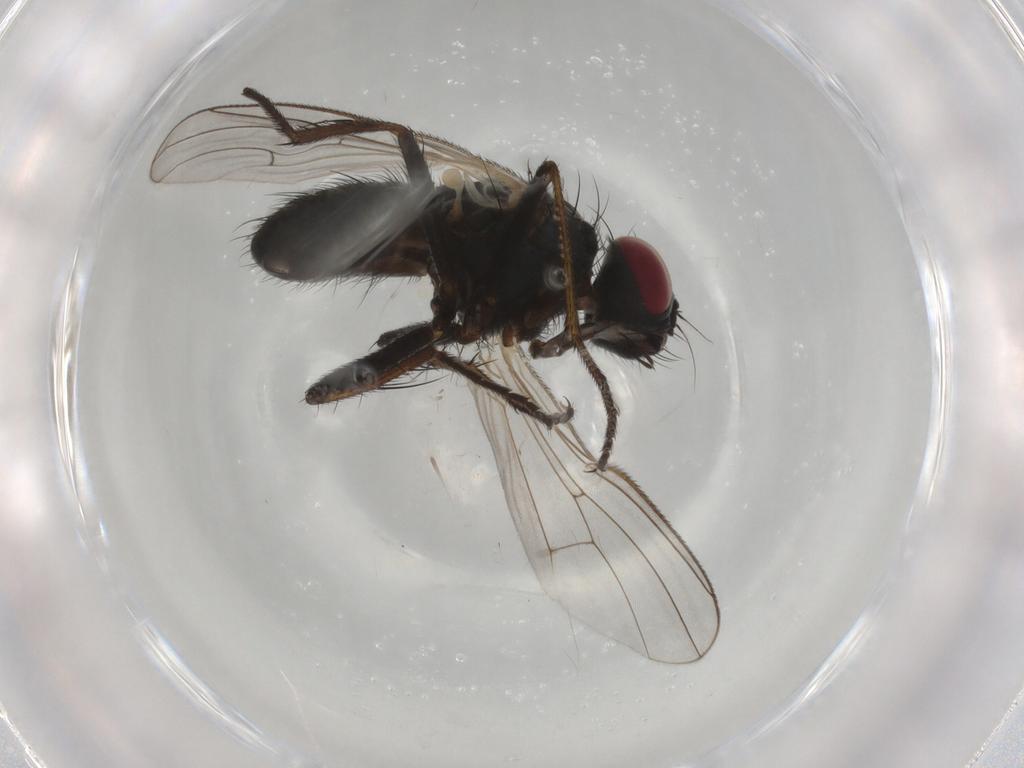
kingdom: Animalia
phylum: Arthropoda
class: Insecta
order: Diptera
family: Muscidae
